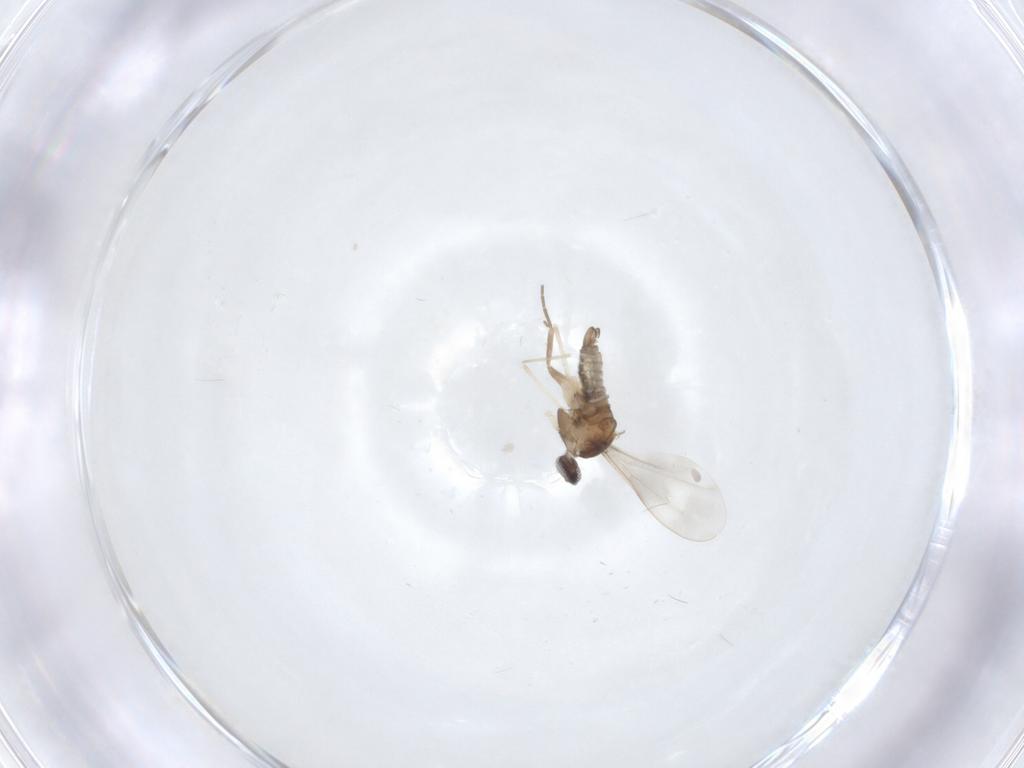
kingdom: Animalia
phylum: Arthropoda
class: Insecta
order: Diptera
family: Cecidomyiidae
